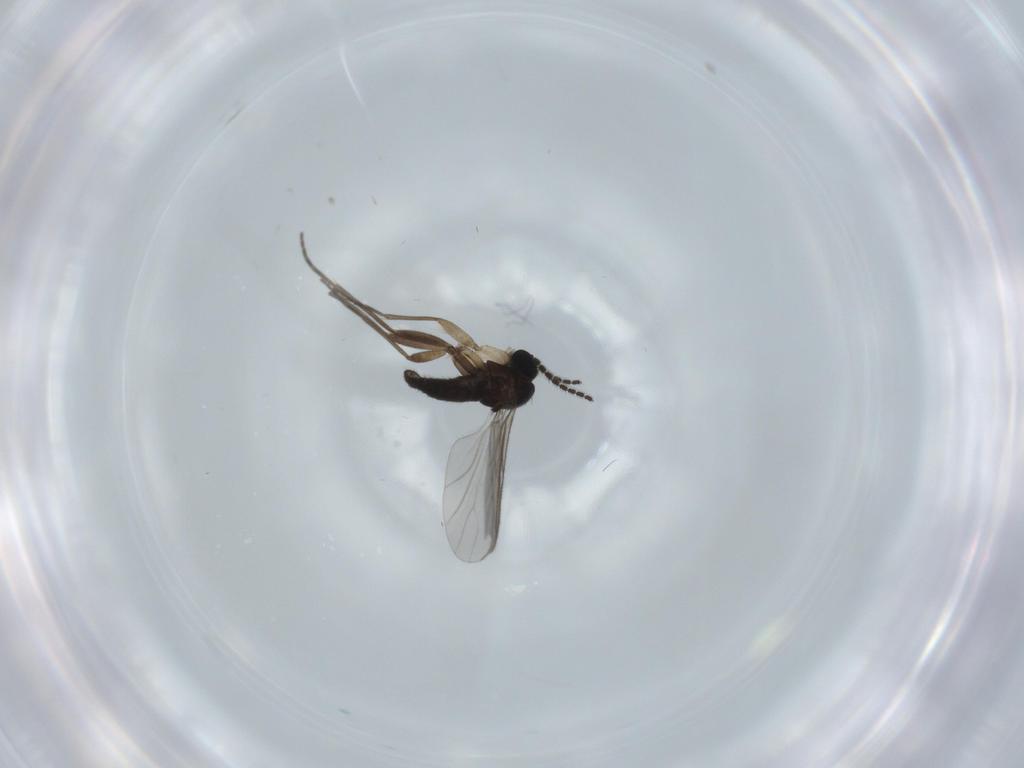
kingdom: Animalia
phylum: Arthropoda
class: Insecta
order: Diptera
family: Sciaridae
